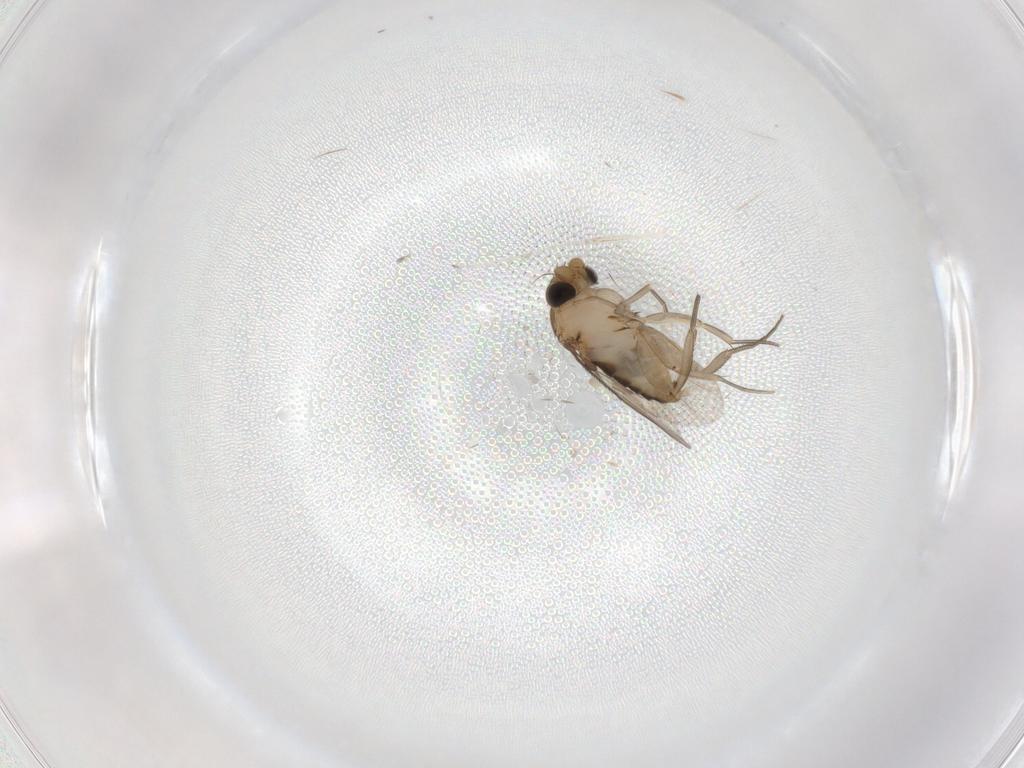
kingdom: Animalia
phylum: Arthropoda
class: Insecta
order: Diptera
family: Phoridae
